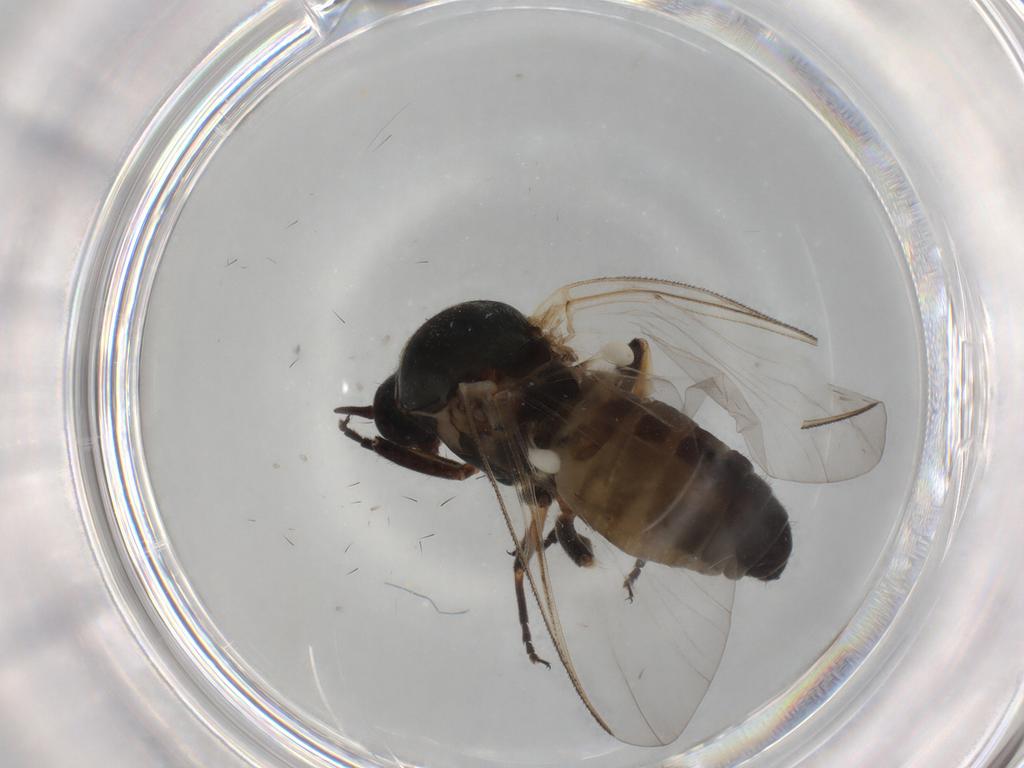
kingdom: Animalia
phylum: Arthropoda
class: Insecta
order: Diptera
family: Simuliidae
